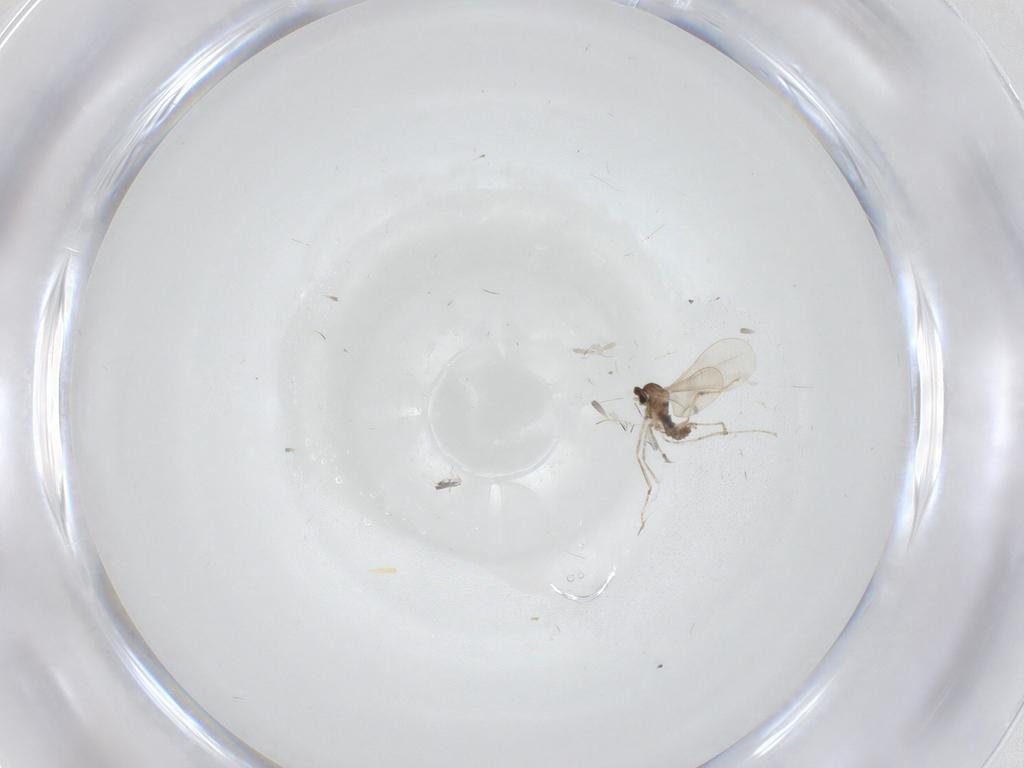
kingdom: Animalia
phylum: Arthropoda
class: Insecta
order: Diptera
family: Cecidomyiidae
